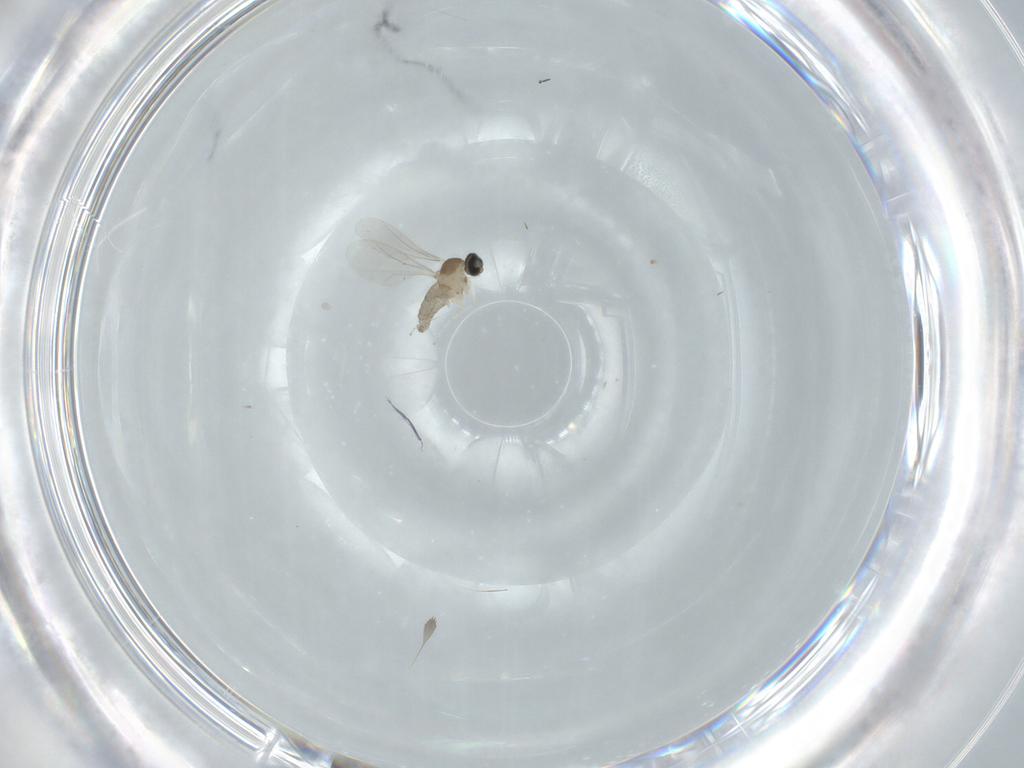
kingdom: Animalia
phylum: Arthropoda
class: Insecta
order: Diptera
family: Cecidomyiidae
